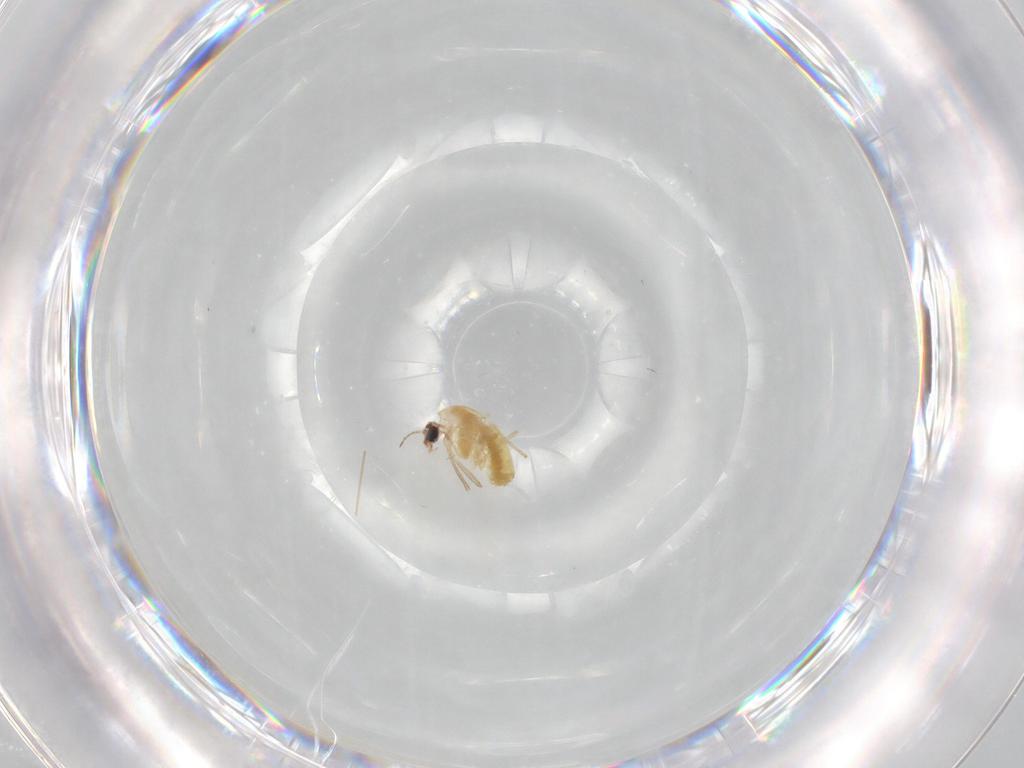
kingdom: Animalia
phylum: Arthropoda
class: Insecta
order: Diptera
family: Chironomidae
